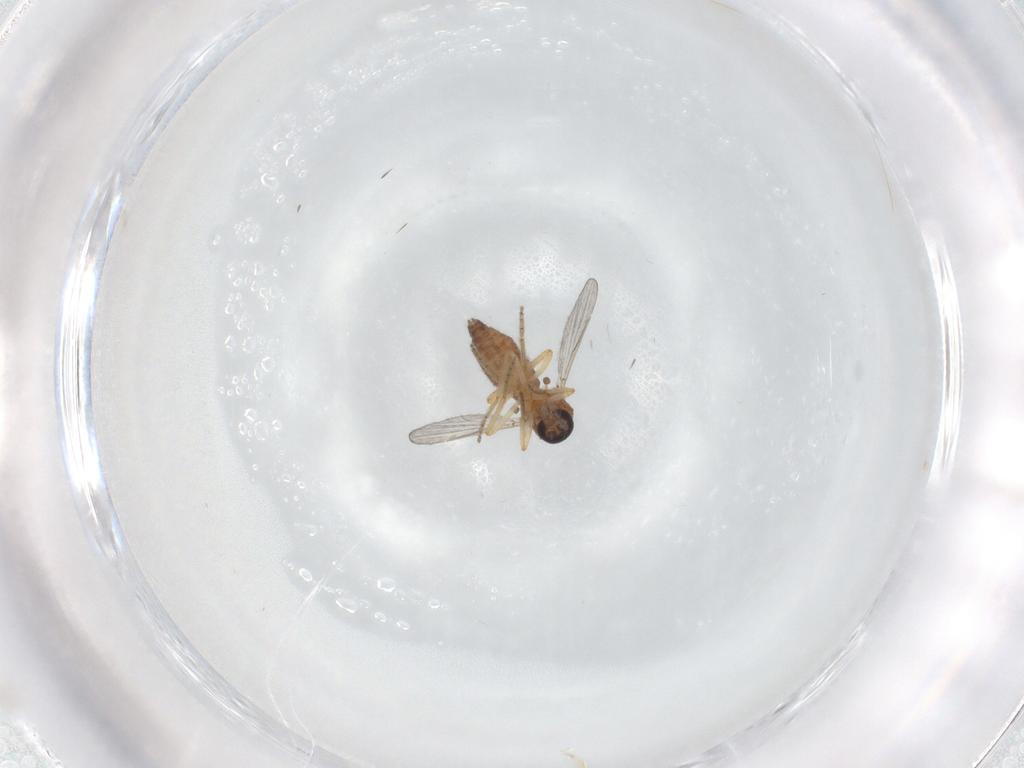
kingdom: Animalia
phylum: Arthropoda
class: Insecta
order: Diptera
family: Ceratopogonidae
